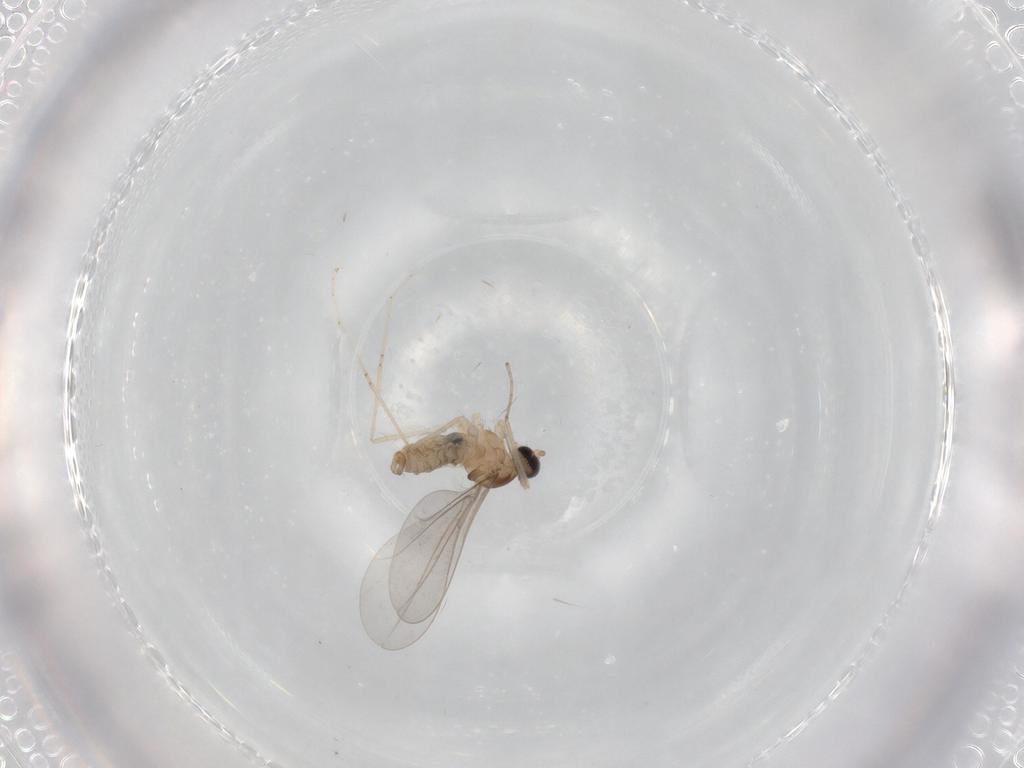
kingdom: Animalia
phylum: Arthropoda
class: Insecta
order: Diptera
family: Cecidomyiidae
